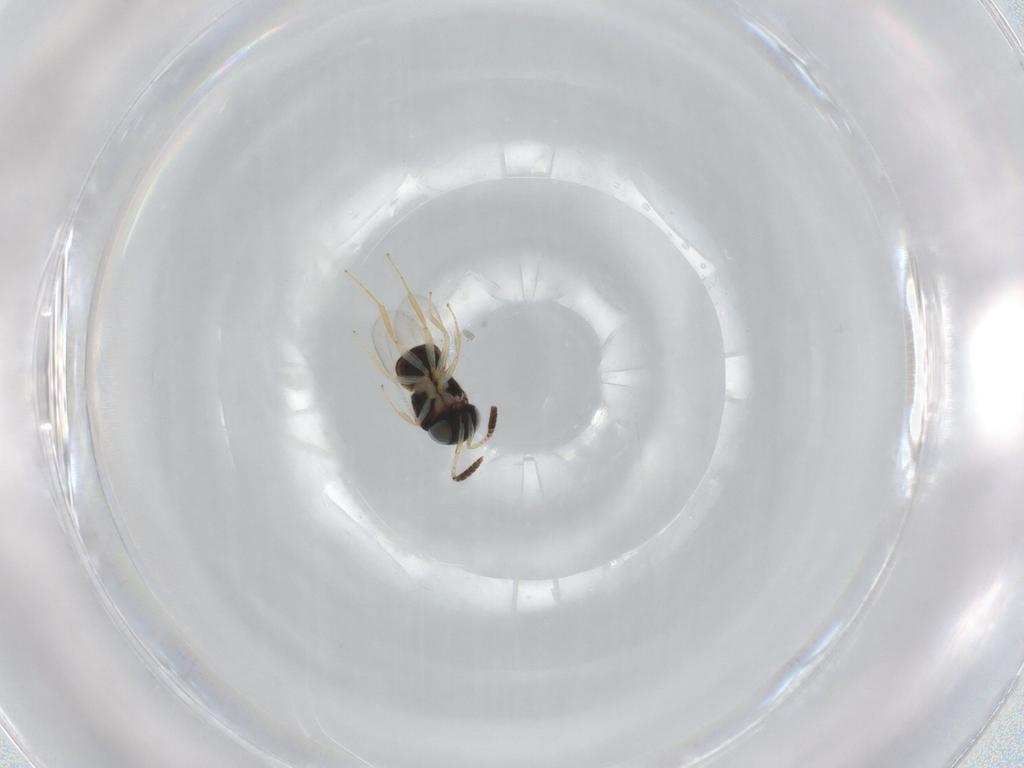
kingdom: Animalia
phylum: Arthropoda
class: Insecta
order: Hymenoptera
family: Scelionidae
